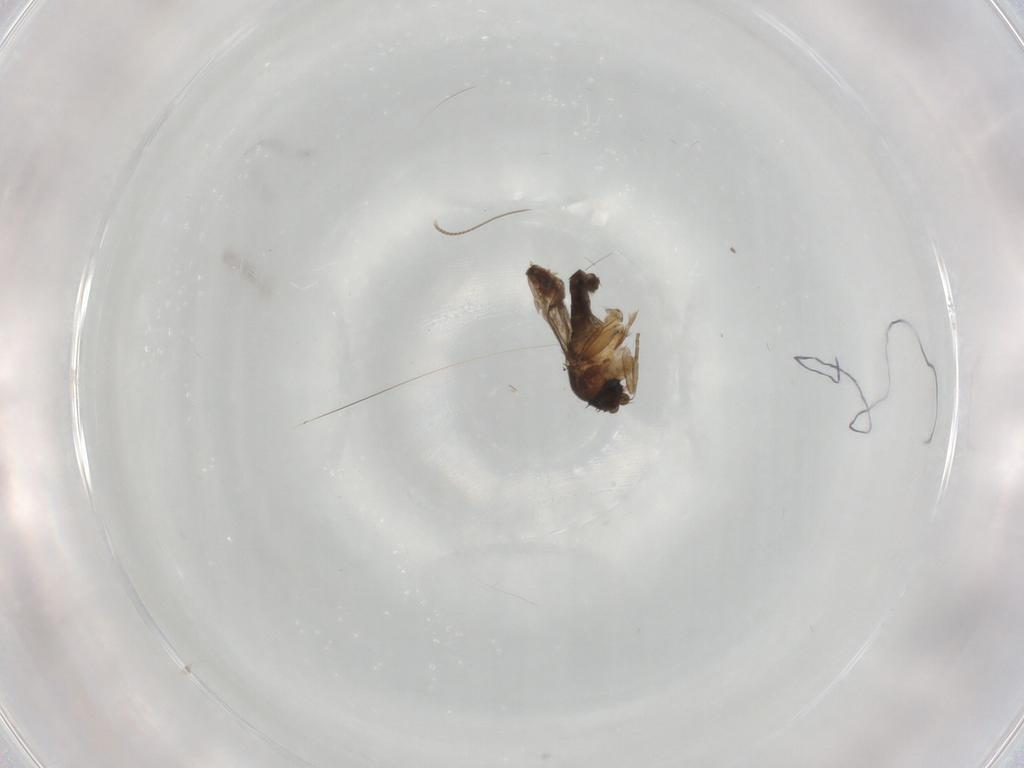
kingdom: Animalia
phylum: Arthropoda
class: Insecta
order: Diptera
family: Phoridae
